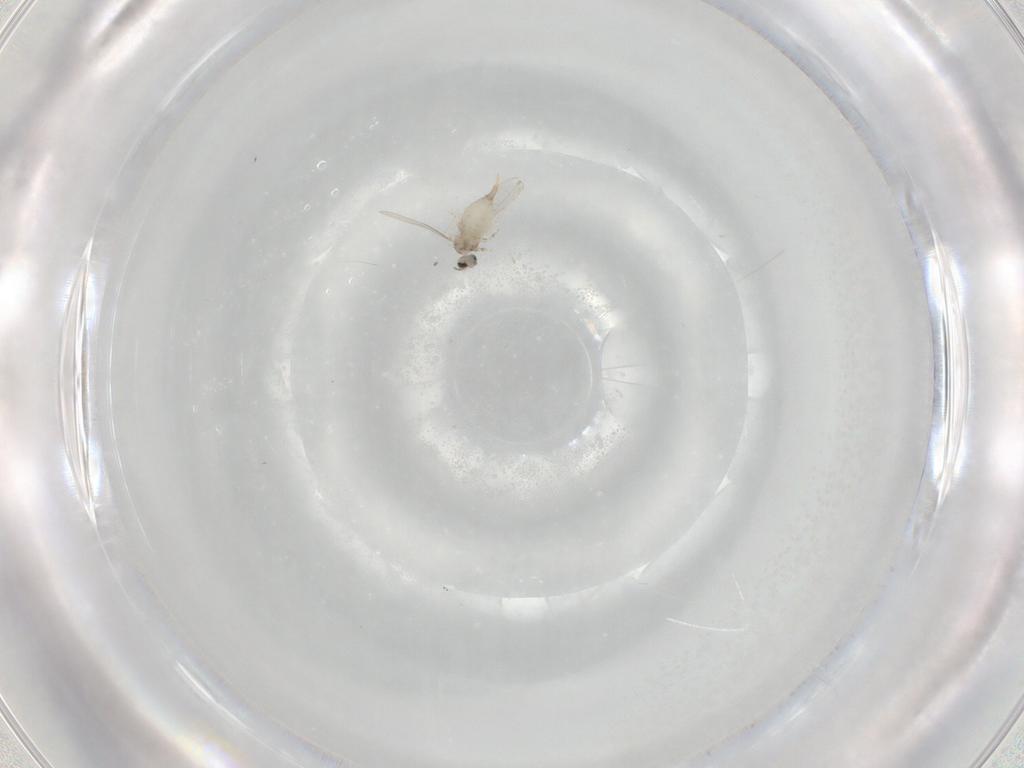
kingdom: Animalia
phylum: Arthropoda
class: Insecta
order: Diptera
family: Chironomidae
